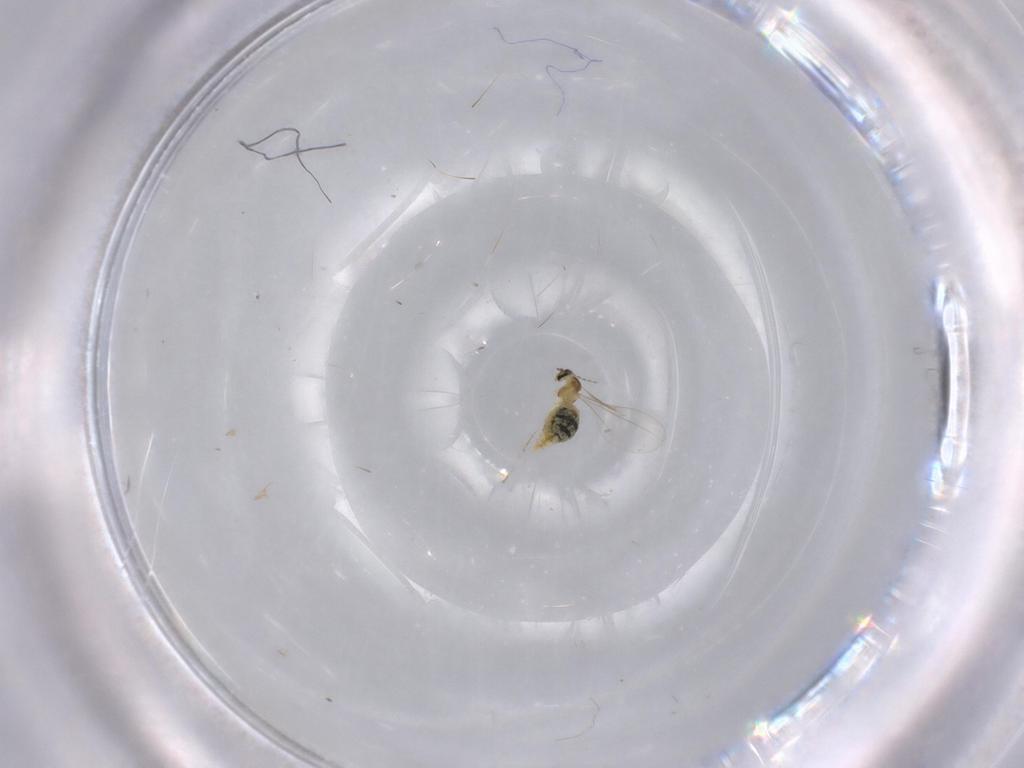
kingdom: Animalia
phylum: Arthropoda
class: Insecta
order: Diptera
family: Cecidomyiidae
